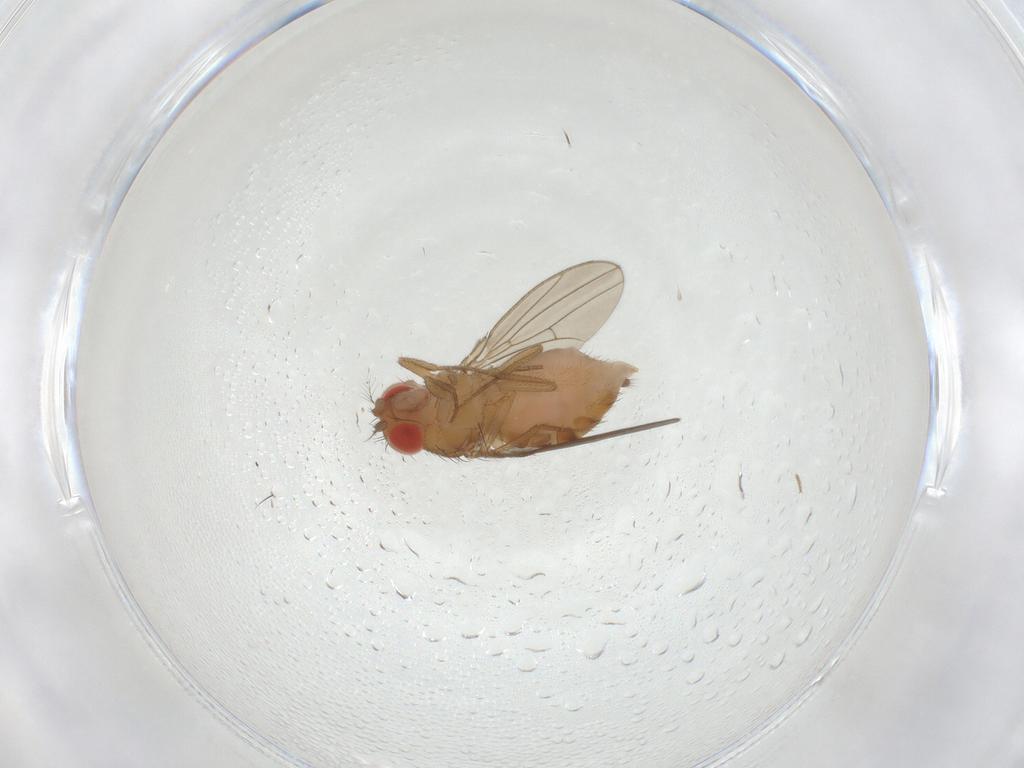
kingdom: Animalia
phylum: Arthropoda
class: Insecta
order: Diptera
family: Drosophilidae
